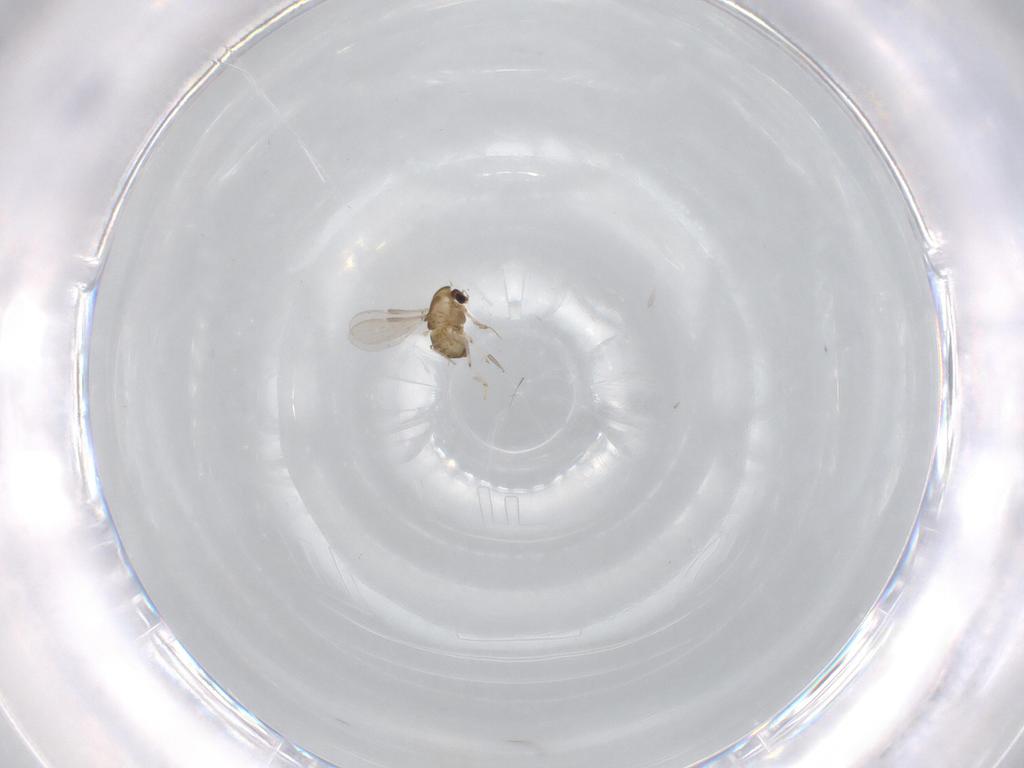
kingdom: Animalia
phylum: Arthropoda
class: Insecta
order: Diptera
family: Chironomidae
